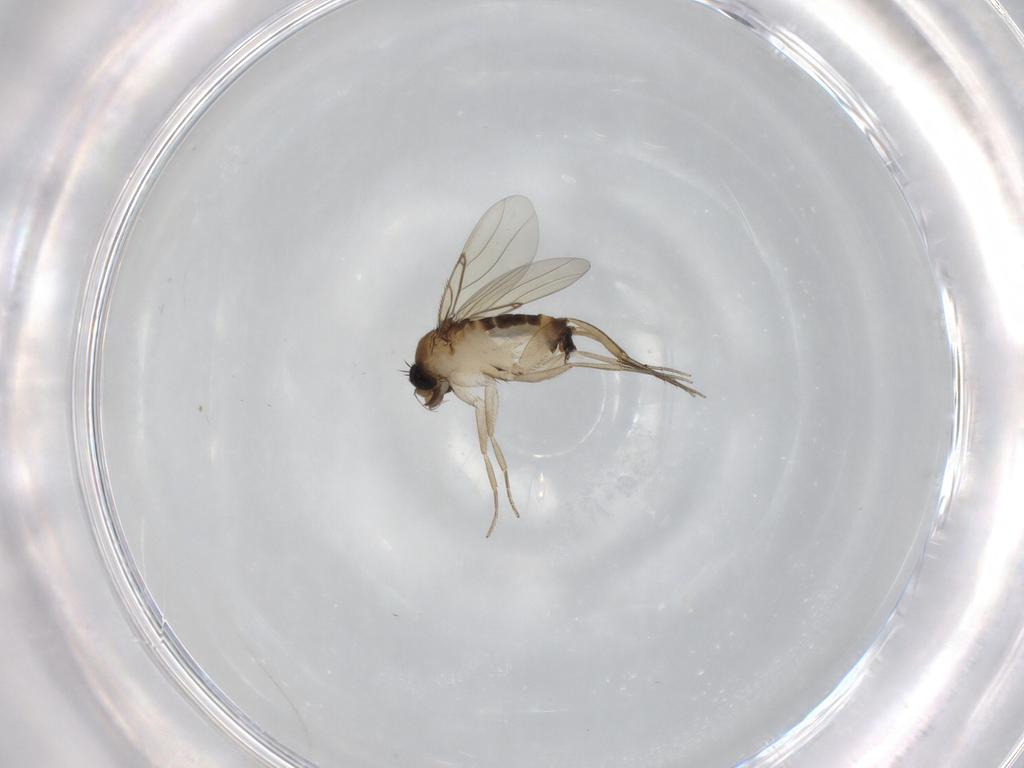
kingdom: Animalia
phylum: Arthropoda
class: Insecta
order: Diptera
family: Phoridae
